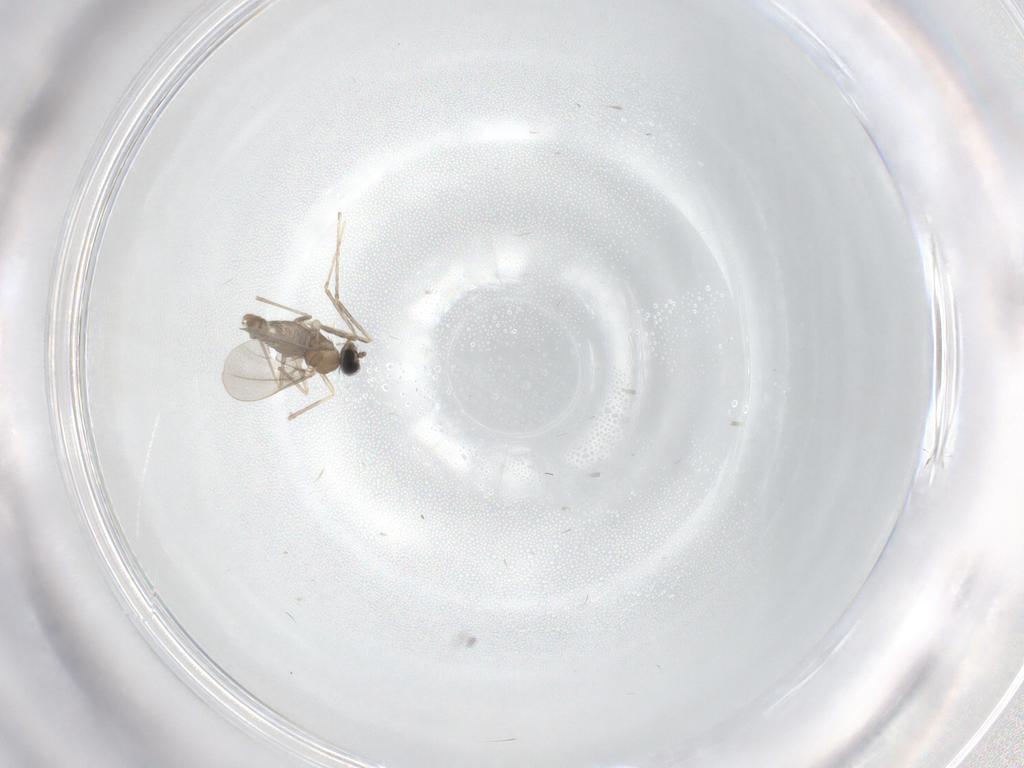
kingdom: Animalia
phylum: Arthropoda
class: Insecta
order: Diptera
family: Cecidomyiidae
